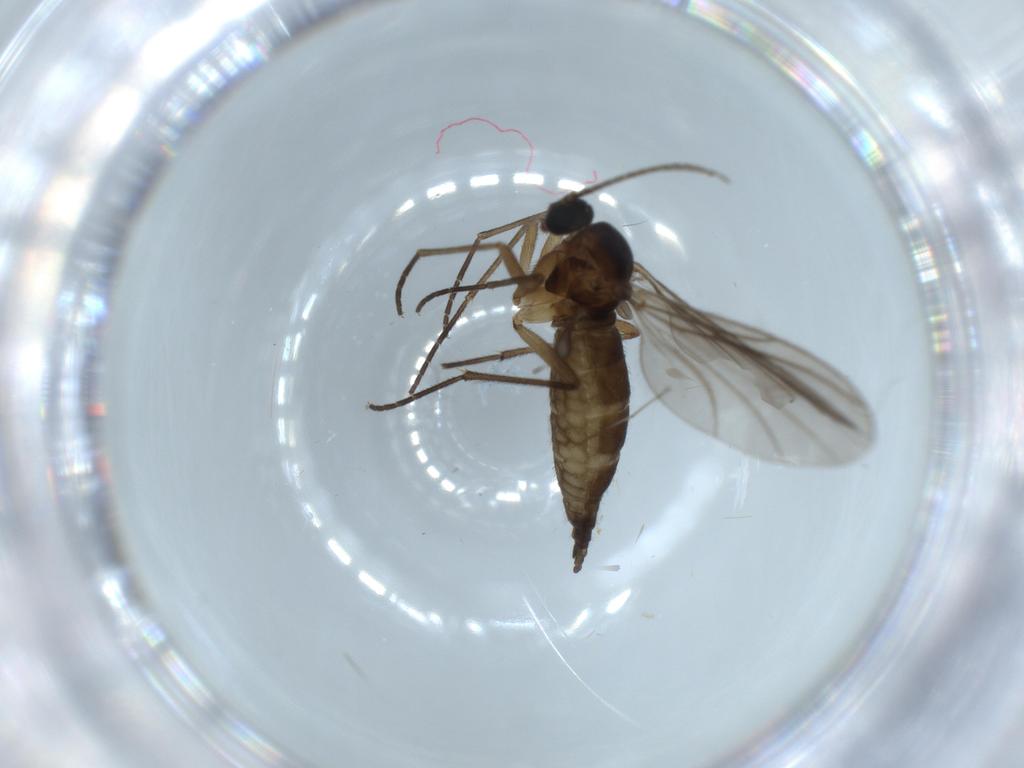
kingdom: Animalia
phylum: Arthropoda
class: Insecta
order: Diptera
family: Sciaridae
